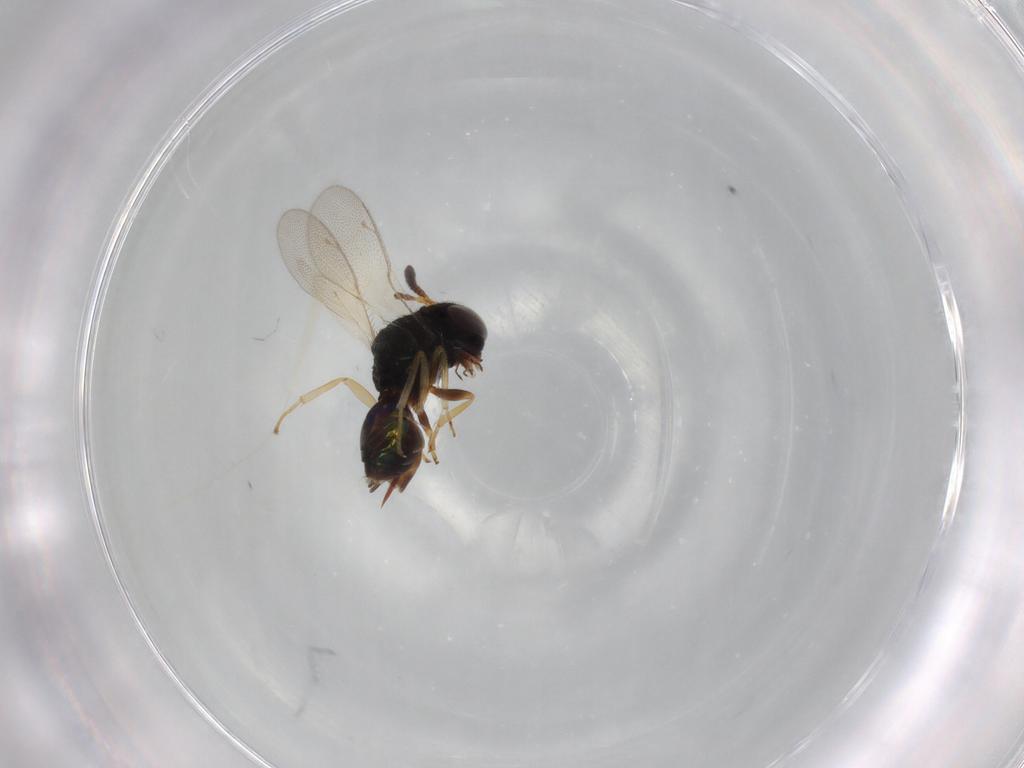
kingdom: Animalia
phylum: Arthropoda
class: Insecta
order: Hymenoptera
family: Pteromalidae
